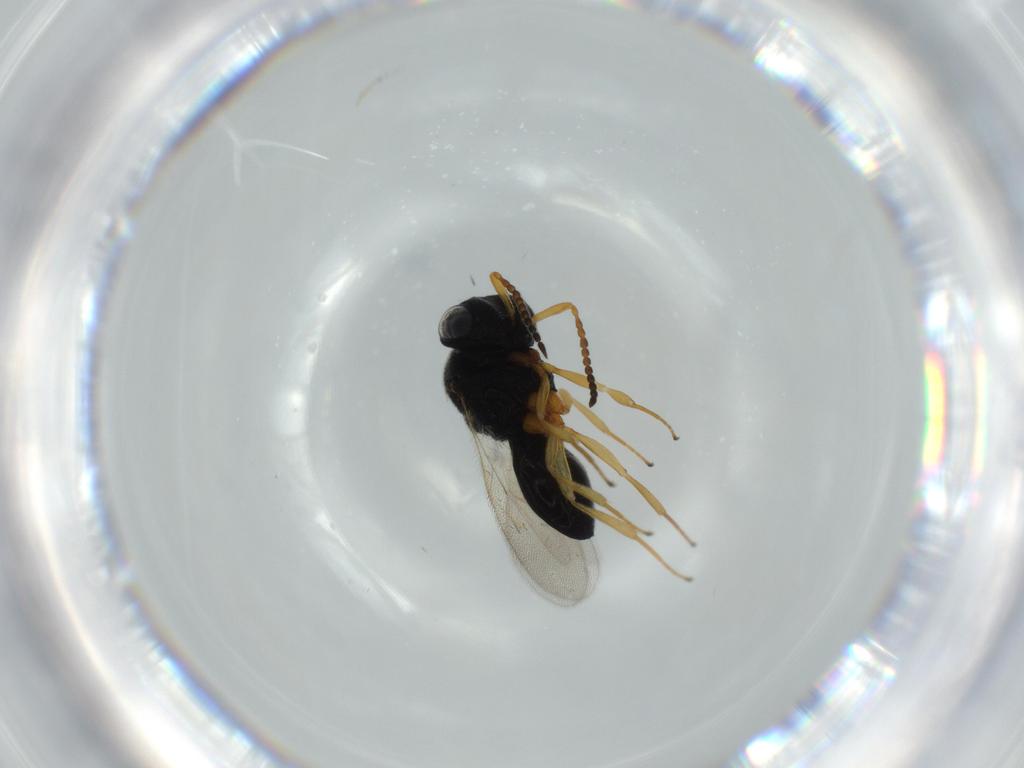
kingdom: Animalia
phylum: Arthropoda
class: Insecta
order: Hymenoptera
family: Scelionidae
